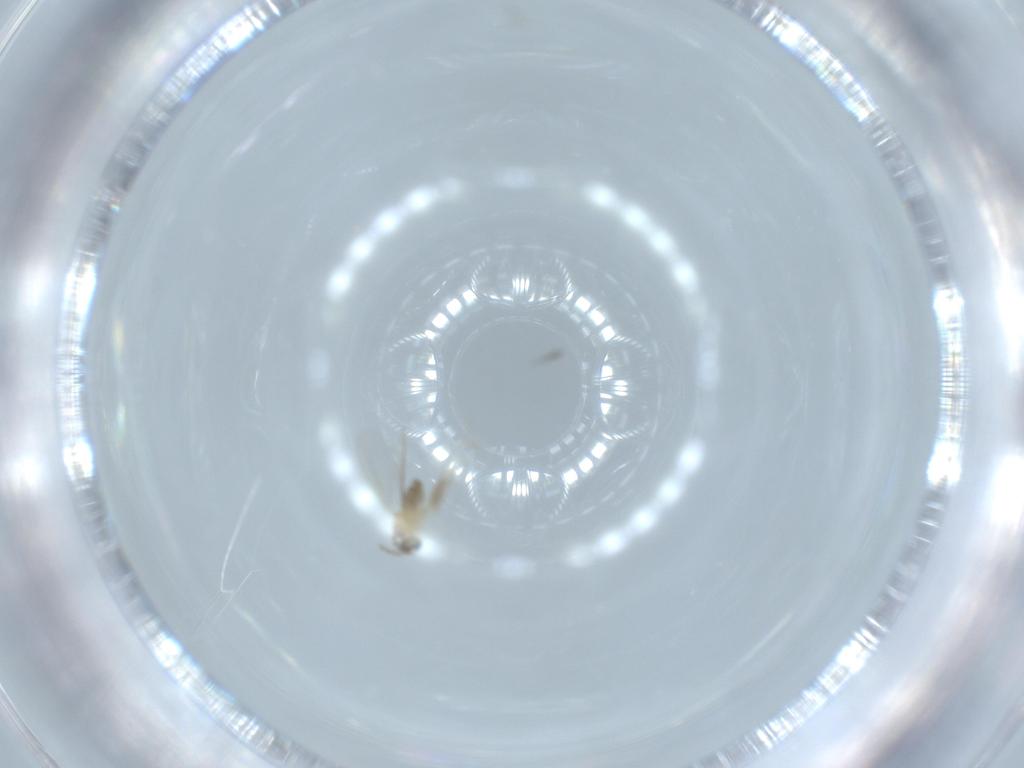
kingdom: Animalia
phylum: Arthropoda
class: Insecta
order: Diptera
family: Cecidomyiidae
